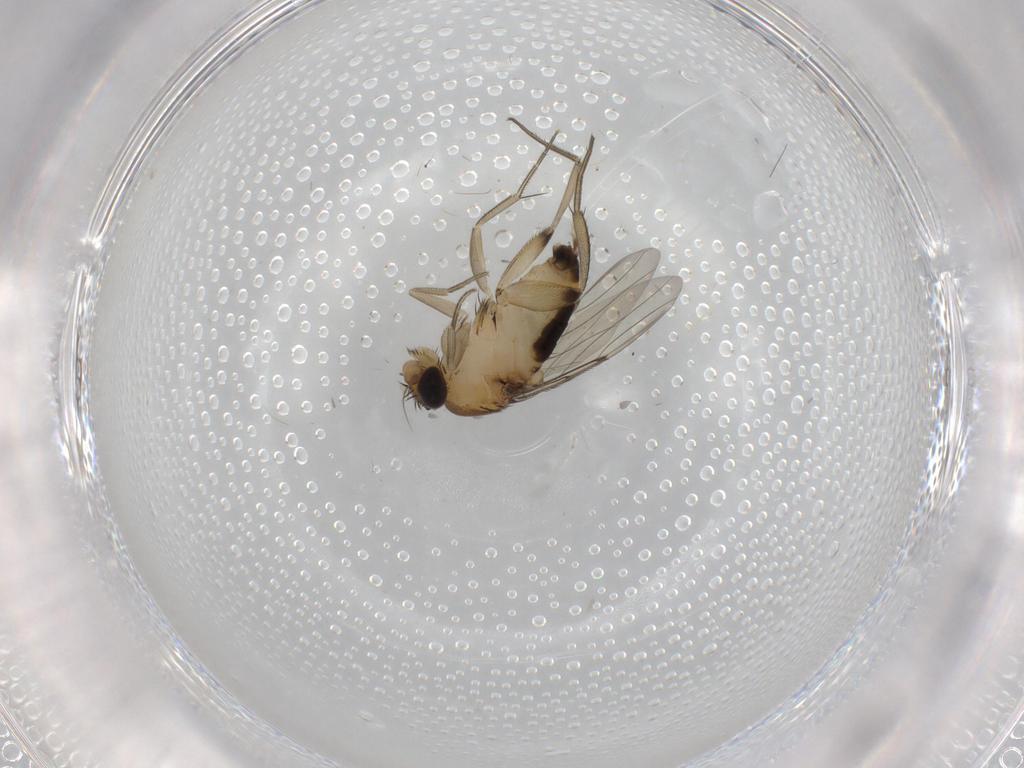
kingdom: Animalia
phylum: Arthropoda
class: Insecta
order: Diptera
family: Phoridae
